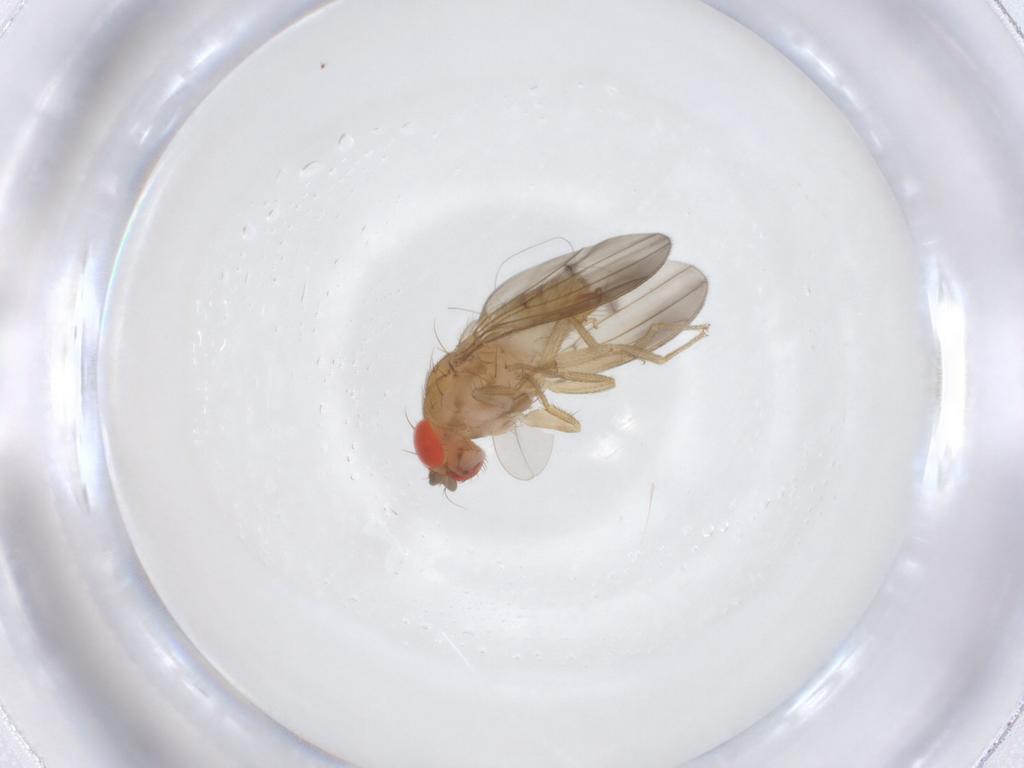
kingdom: Animalia
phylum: Arthropoda
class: Insecta
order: Diptera
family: Drosophilidae
